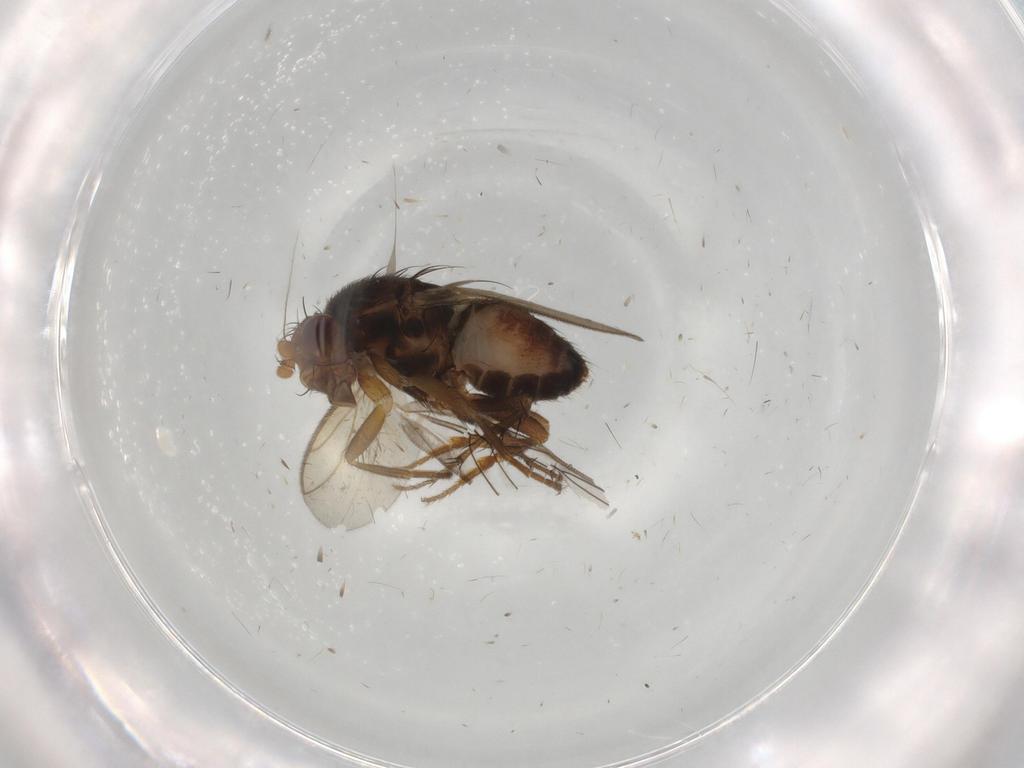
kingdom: Animalia
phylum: Arthropoda
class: Insecta
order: Diptera
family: Sphaeroceridae
